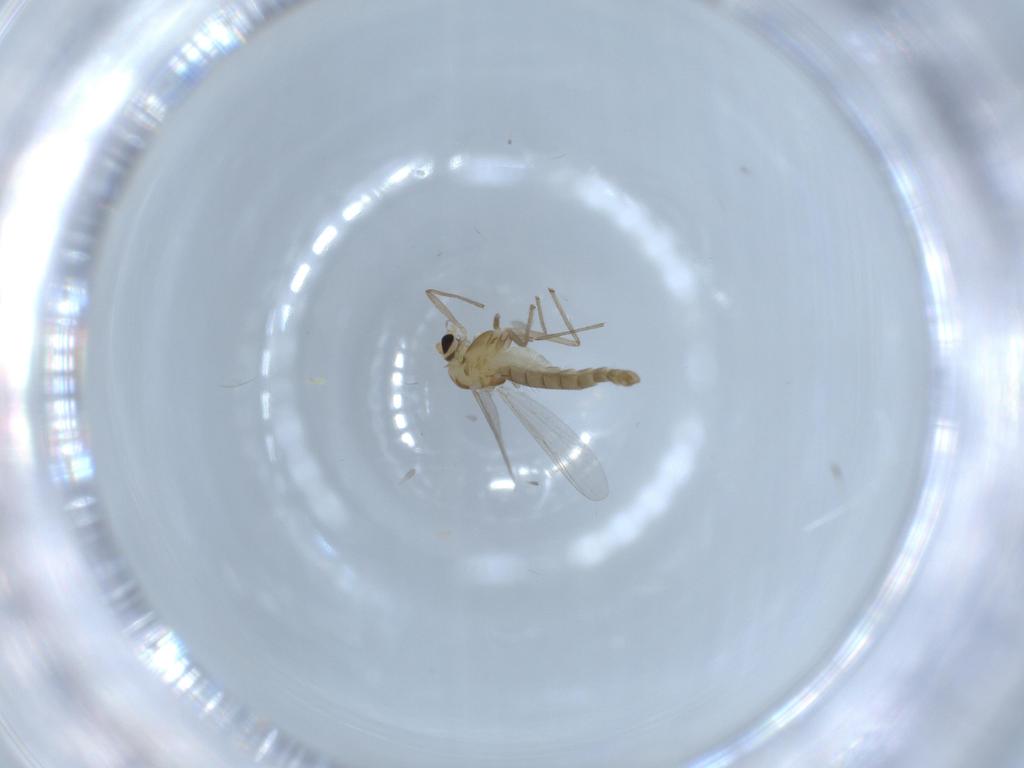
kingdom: Animalia
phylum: Arthropoda
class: Insecta
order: Diptera
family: Chironomidae
